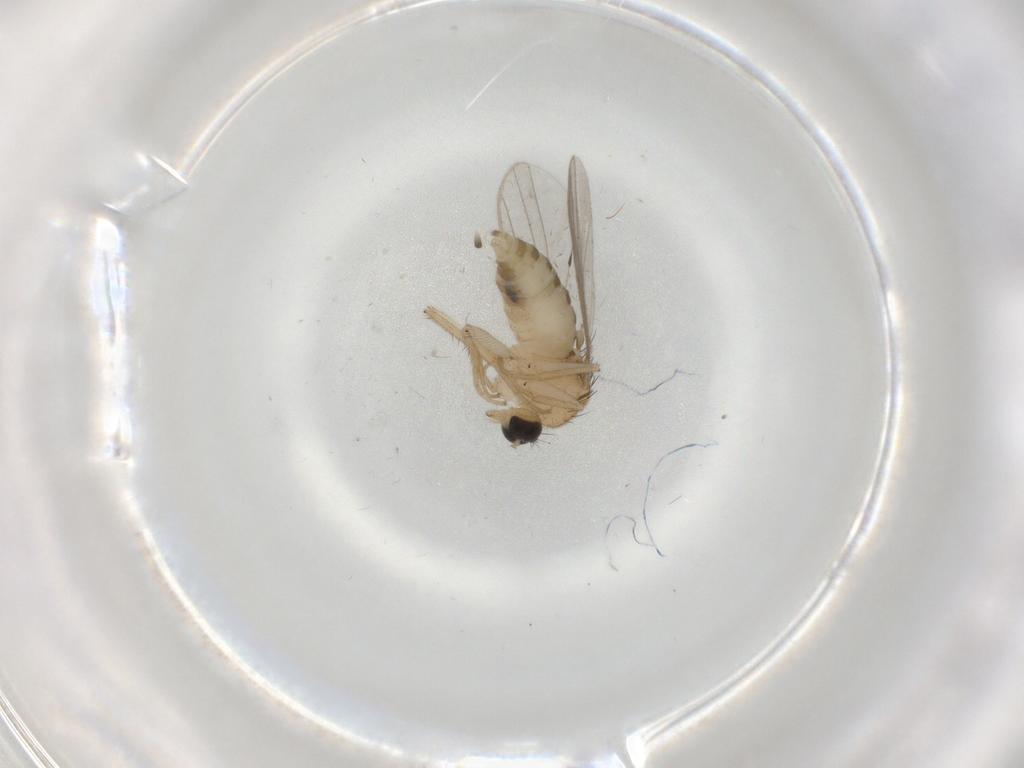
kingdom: Animalia
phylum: Arthropoda
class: Insecta
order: Diptera
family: Hybotidae
